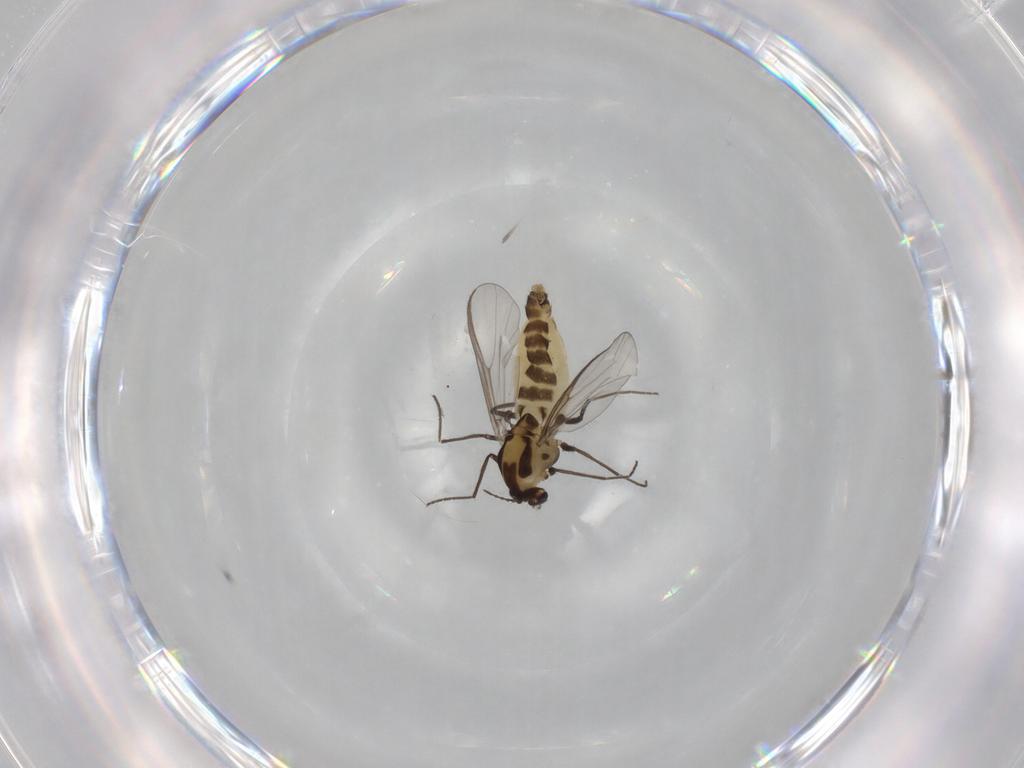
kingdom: Animalia
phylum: Arthropoda
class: Insecta
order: Diptera
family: Chironomidae
